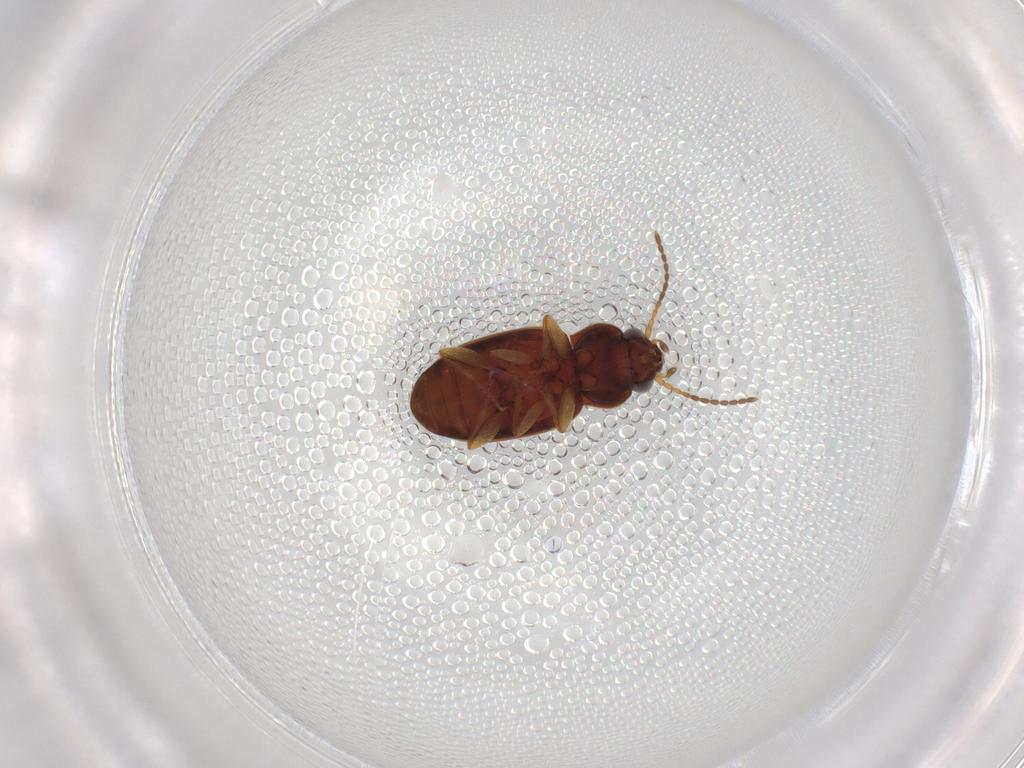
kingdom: Animalia
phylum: Arthropoda
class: Insecta
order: Coleoptera
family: Carabidae
